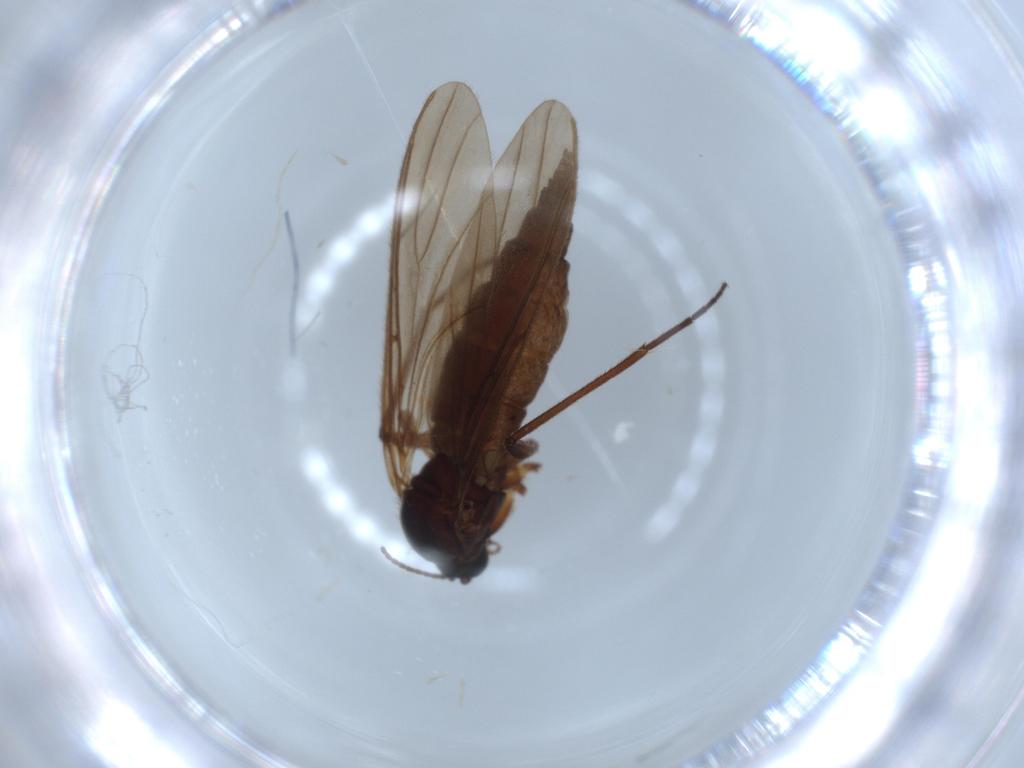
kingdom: Animalia
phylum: Arthropoda
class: Insecta
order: Diptera
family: Sciaridae
